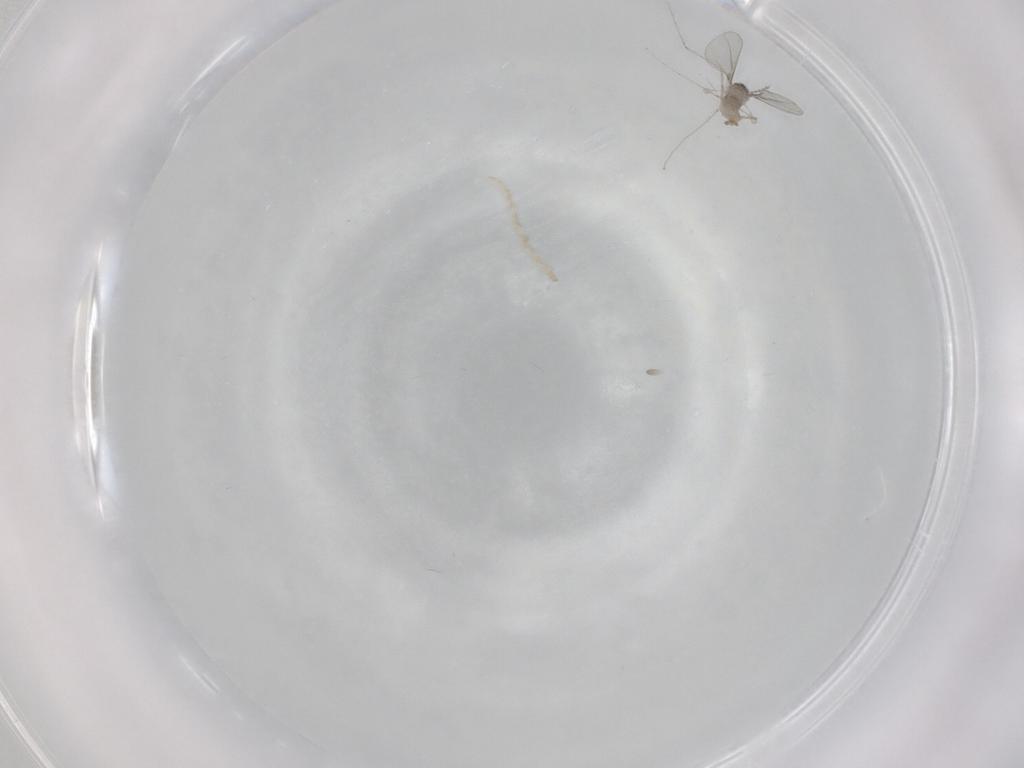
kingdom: Animalia
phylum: Arthropoda
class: Insecta
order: Diptera
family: Cecidomyiidae
